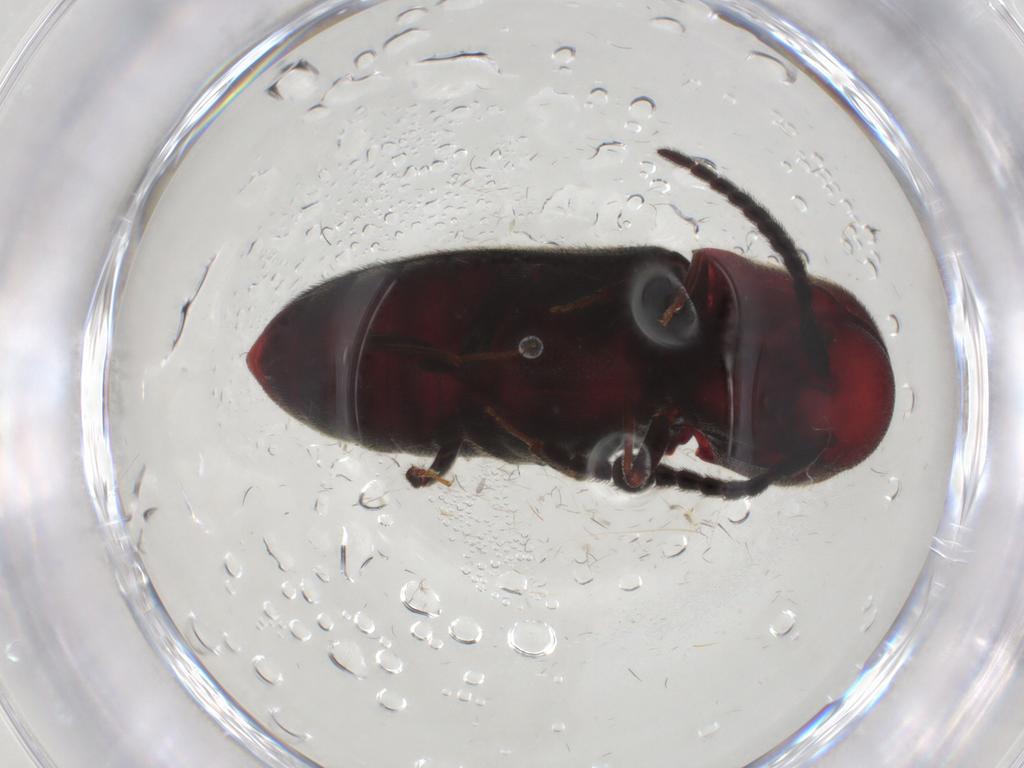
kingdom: Animalia
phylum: Arthropoda
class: Insecta
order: Coleoptera
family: Eucnemidae
